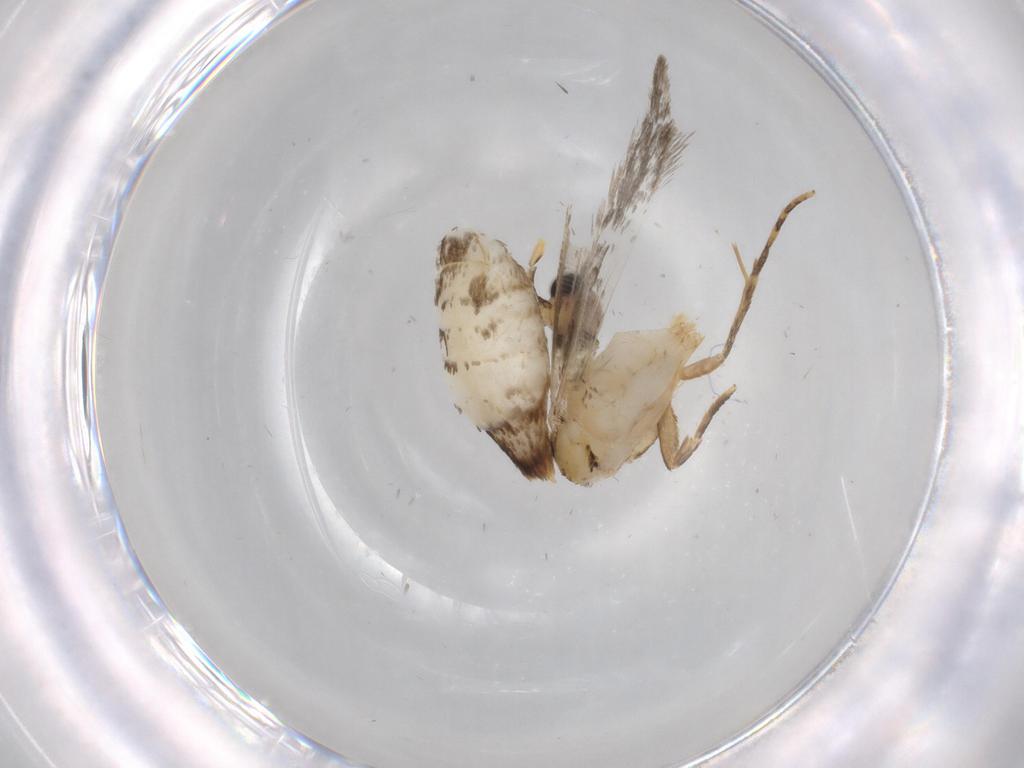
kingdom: Animalia
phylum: Arthropoda
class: Insecta
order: Lepidoptera
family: Tineidae
